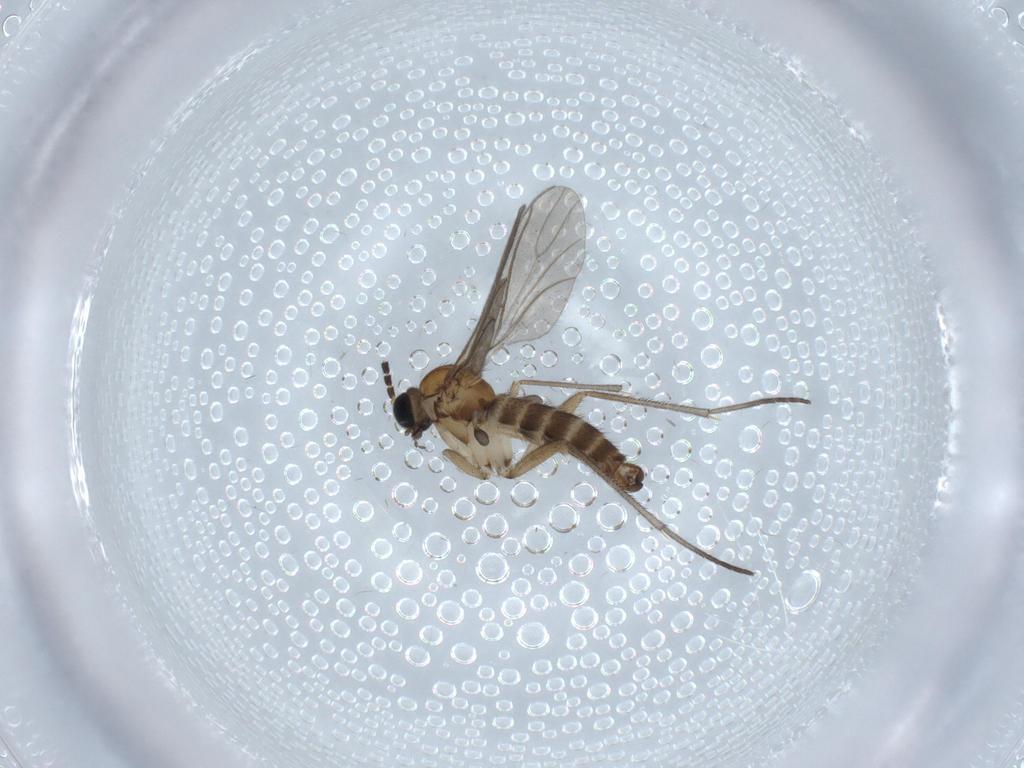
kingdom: Animalia
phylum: Arthropoda
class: Insecta
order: Diptera
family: Sciaridae
